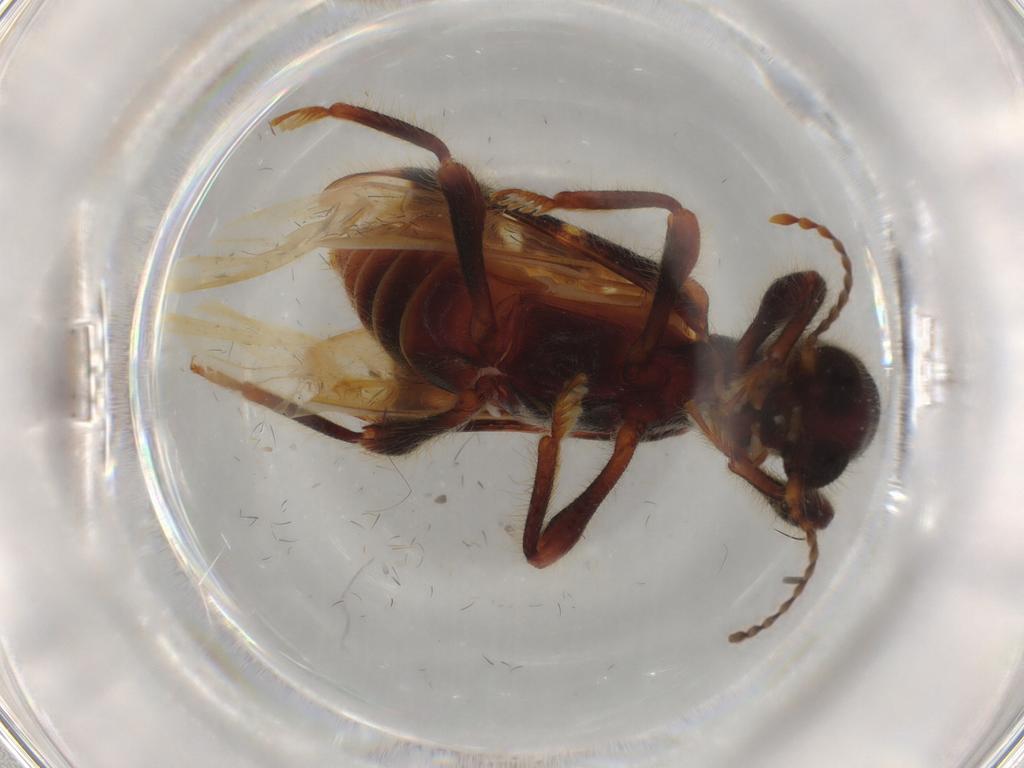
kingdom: Animalia
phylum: Arthropoda
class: Insecta
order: Coleoptera
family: Chrysomelidae
